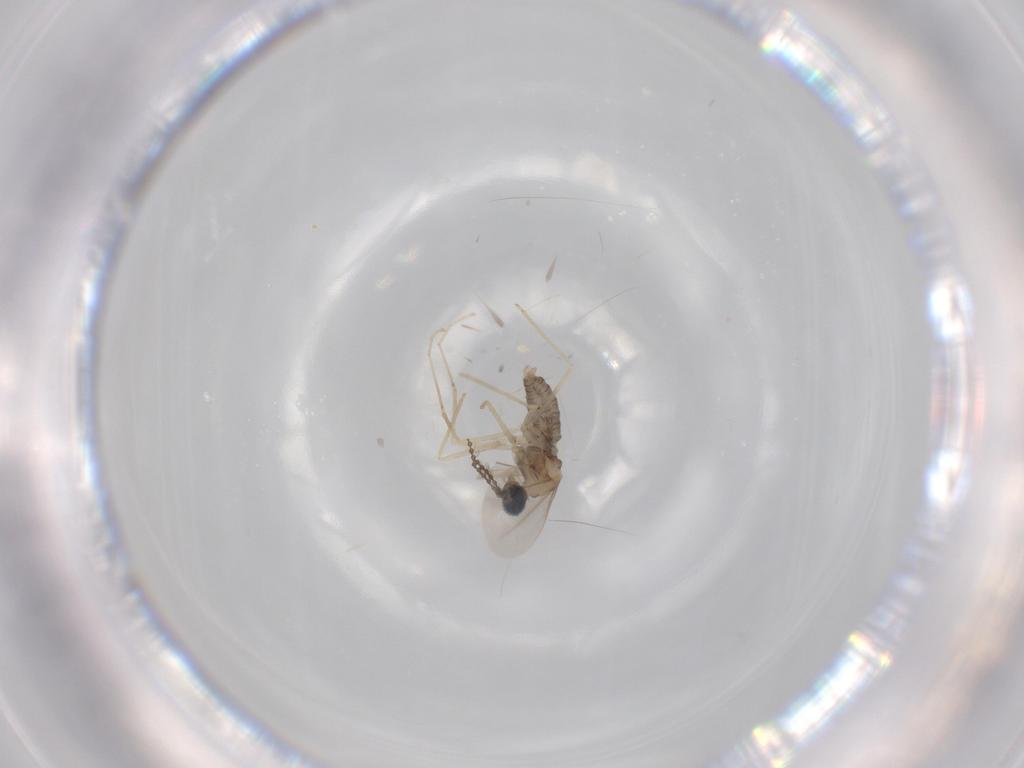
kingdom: Animalia
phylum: Arthropoda
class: Insecta
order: Diptera
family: Cecidomyiidae
